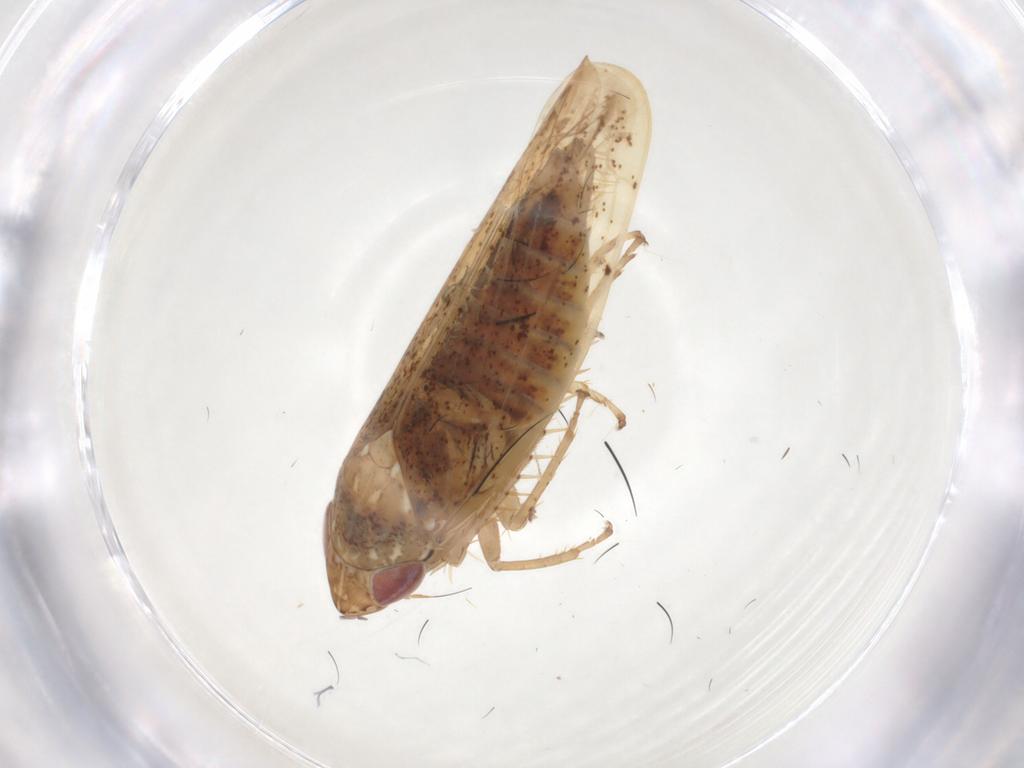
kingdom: Animalia
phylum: Arthropoda
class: Insecta
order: Hemiptera
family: Cicadellidae
